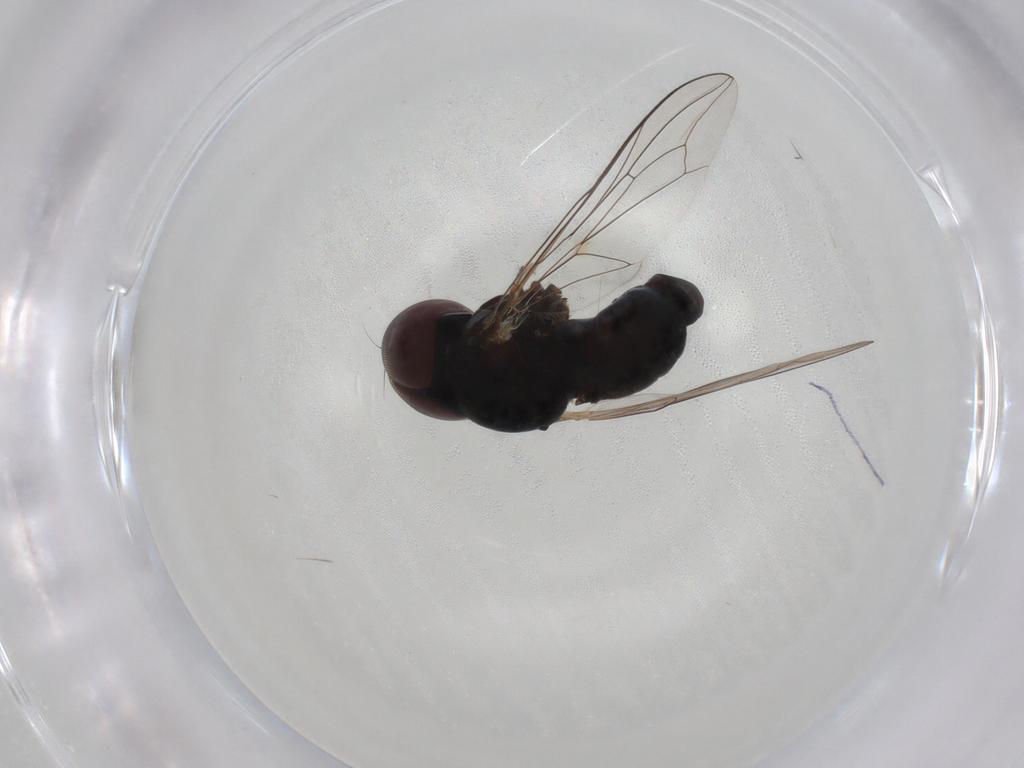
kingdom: Animalia
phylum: Arthropoda
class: Insecta
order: Diptera
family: Pipunculidae
